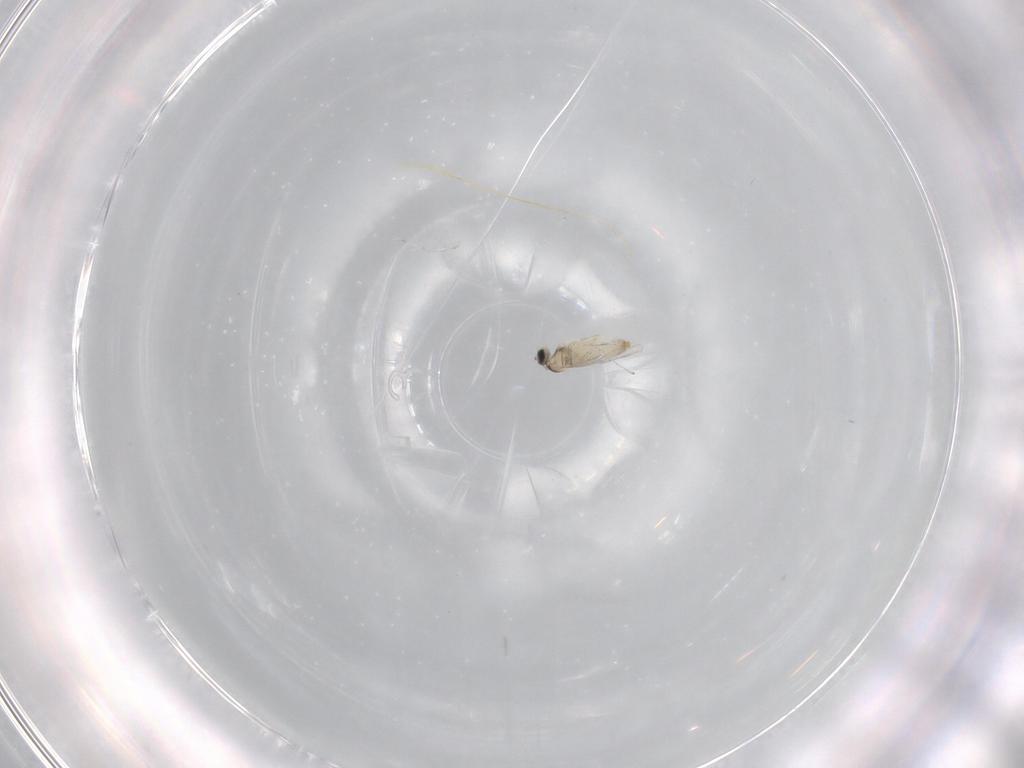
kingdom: Animalia
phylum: Arthropoda
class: Insecta
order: Diptera
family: Cecidomyiidae
